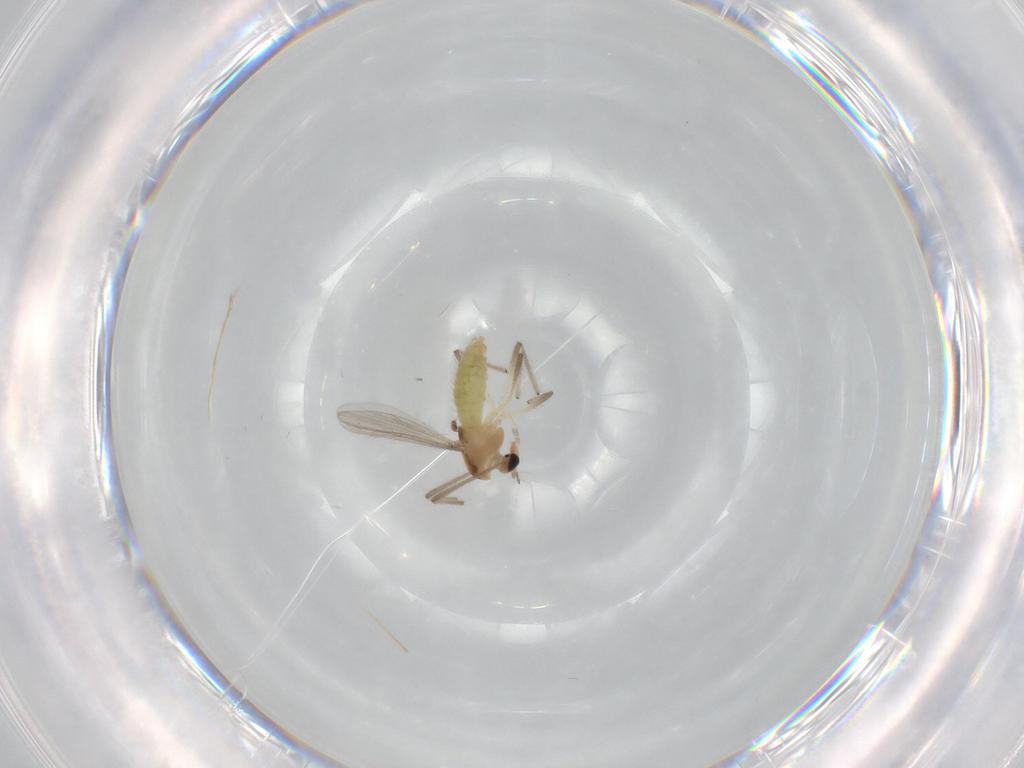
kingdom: Animalia
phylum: Arthropoda
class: Insecta
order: Diptera
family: Chironomidae
